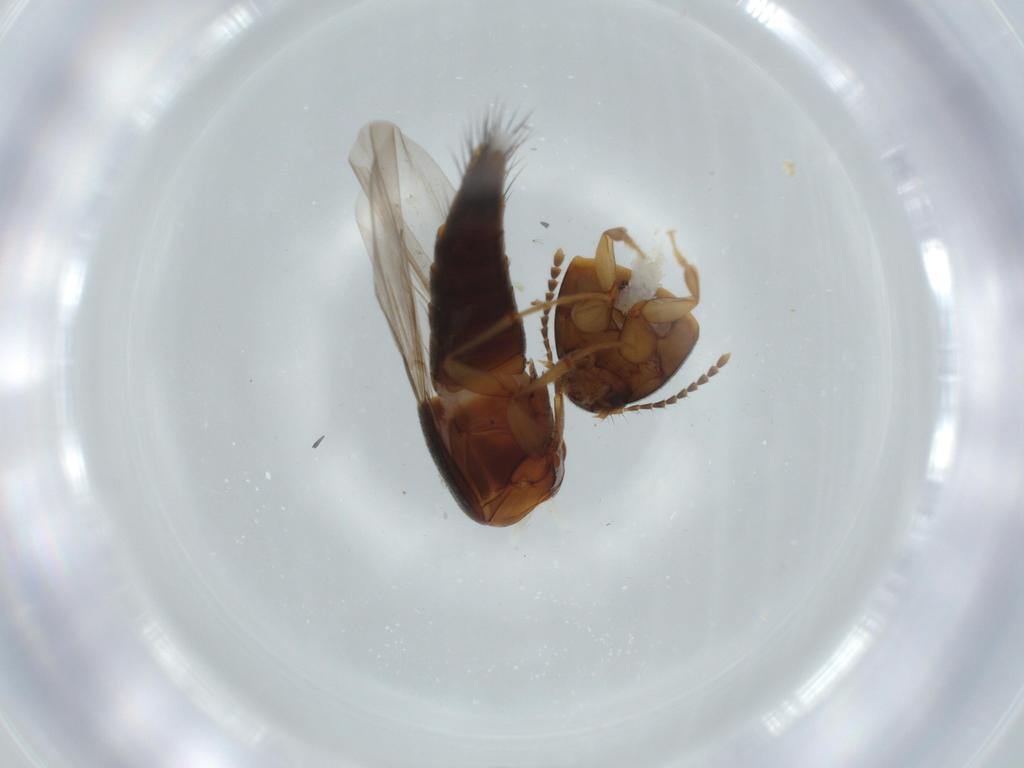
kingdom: Animalia
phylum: Arthropoda
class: Insecta
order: Coleoptera
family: Staphylinidae
